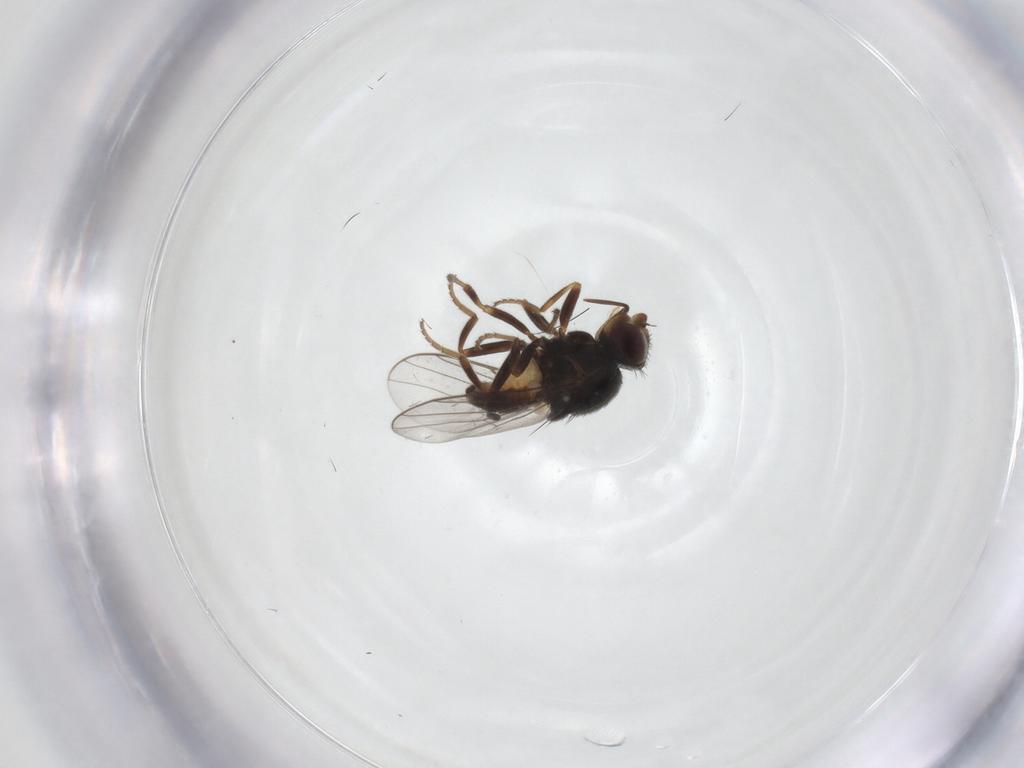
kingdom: Animalia
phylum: Arthropoda
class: Insecta
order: Diptera
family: Chloropidae
